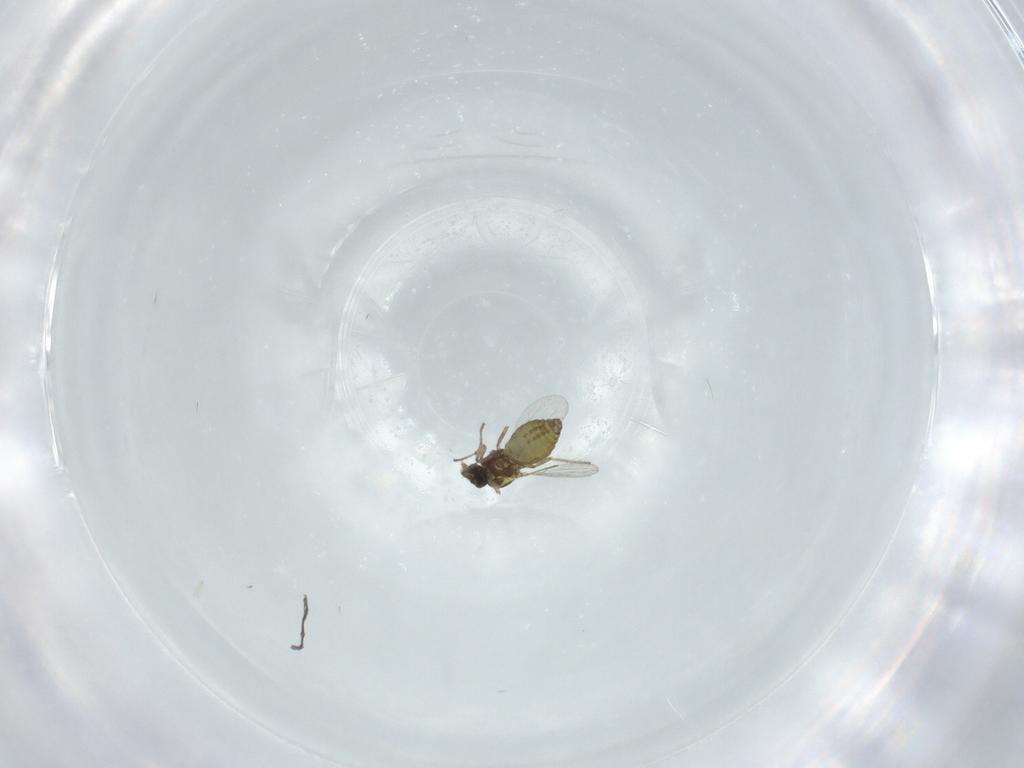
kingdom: Animalia
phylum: Arthropoda
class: Insecta
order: Diptera
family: Ceratopogonidae
